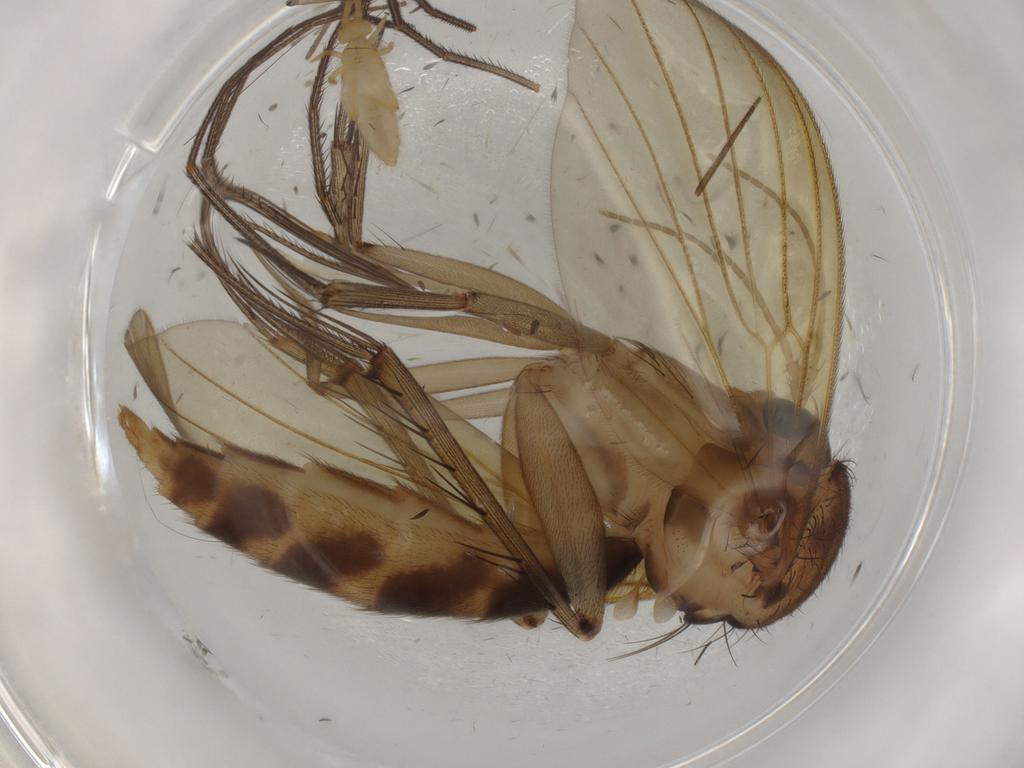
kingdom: Animalia
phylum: Arthropoda
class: Insecta
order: Diptera
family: Mycetophilidae
